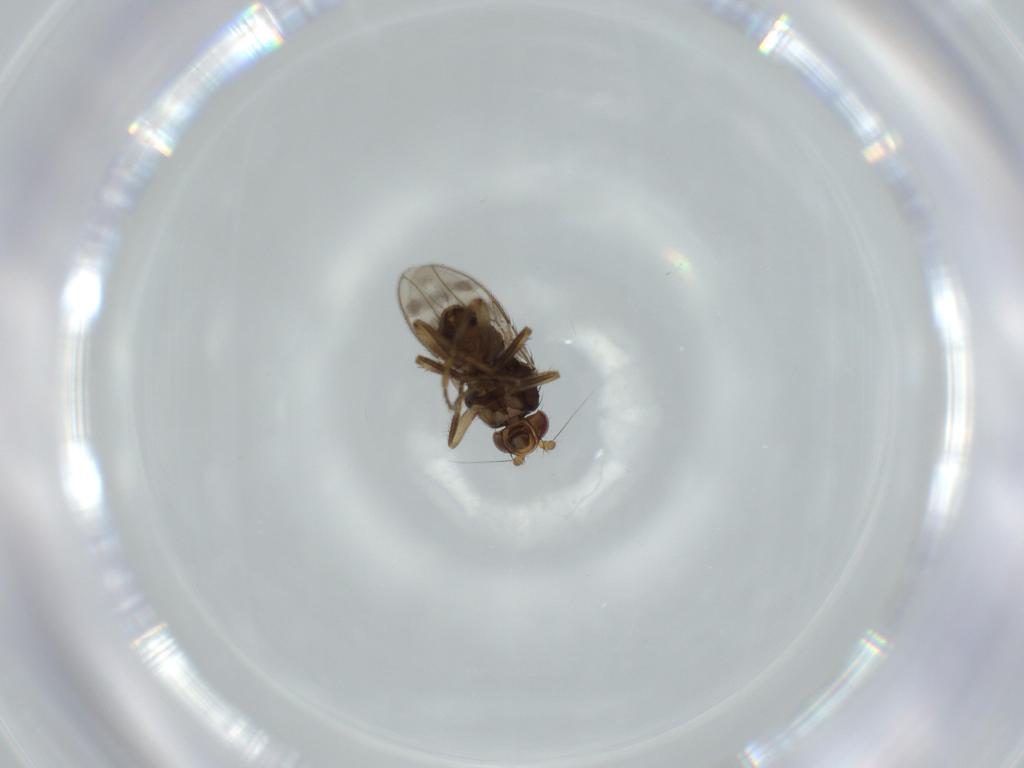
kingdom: Animalia
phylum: Arthropoda
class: Insecta
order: Diptera
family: Sphaeroceridae
